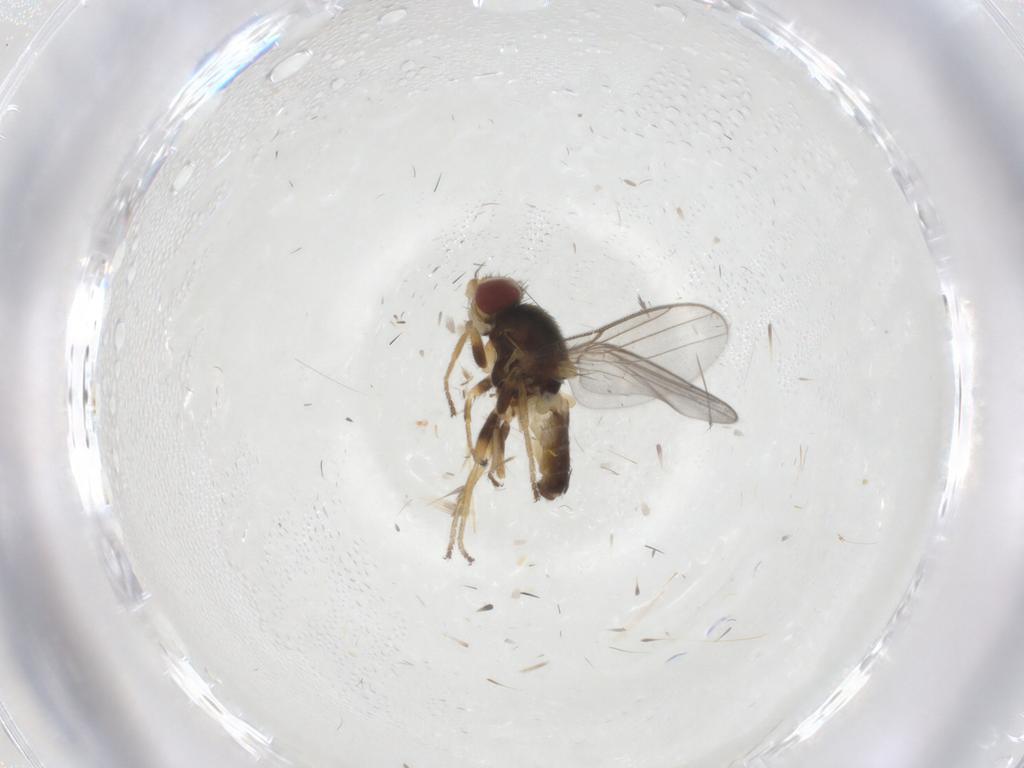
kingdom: Animalia
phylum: Arthropoda
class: Insecta
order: Diptera
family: Chloropidae
